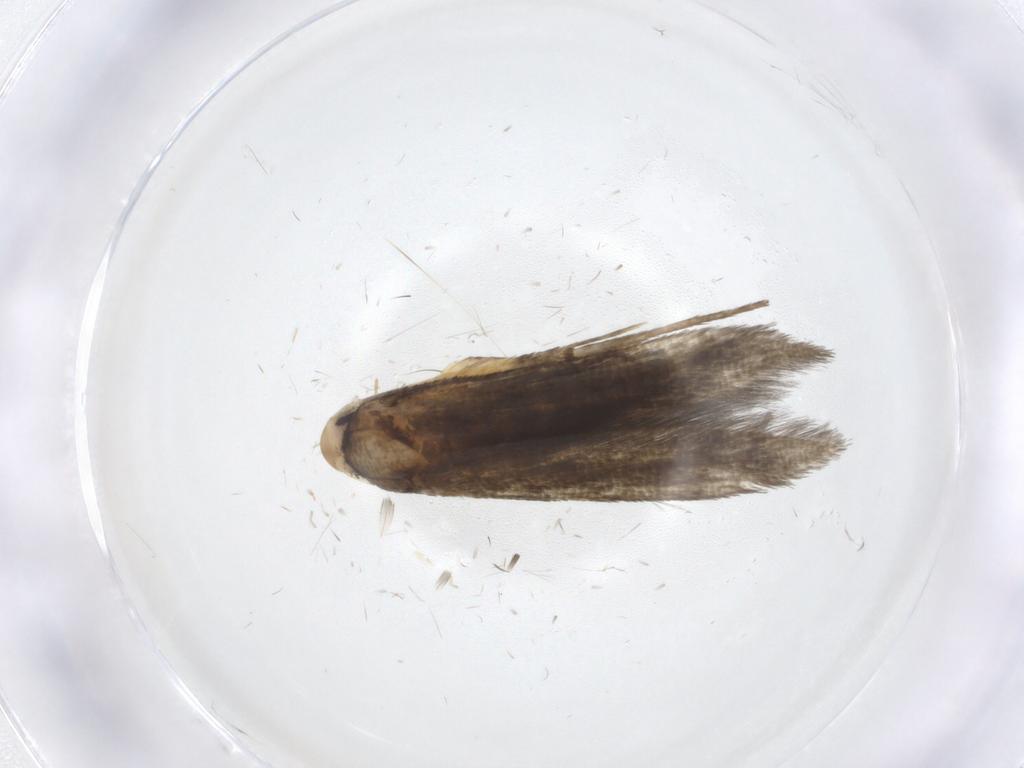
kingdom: Animalia
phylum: Arthropoda
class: Insecta
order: Lepidoptera
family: Stathmopodidae
